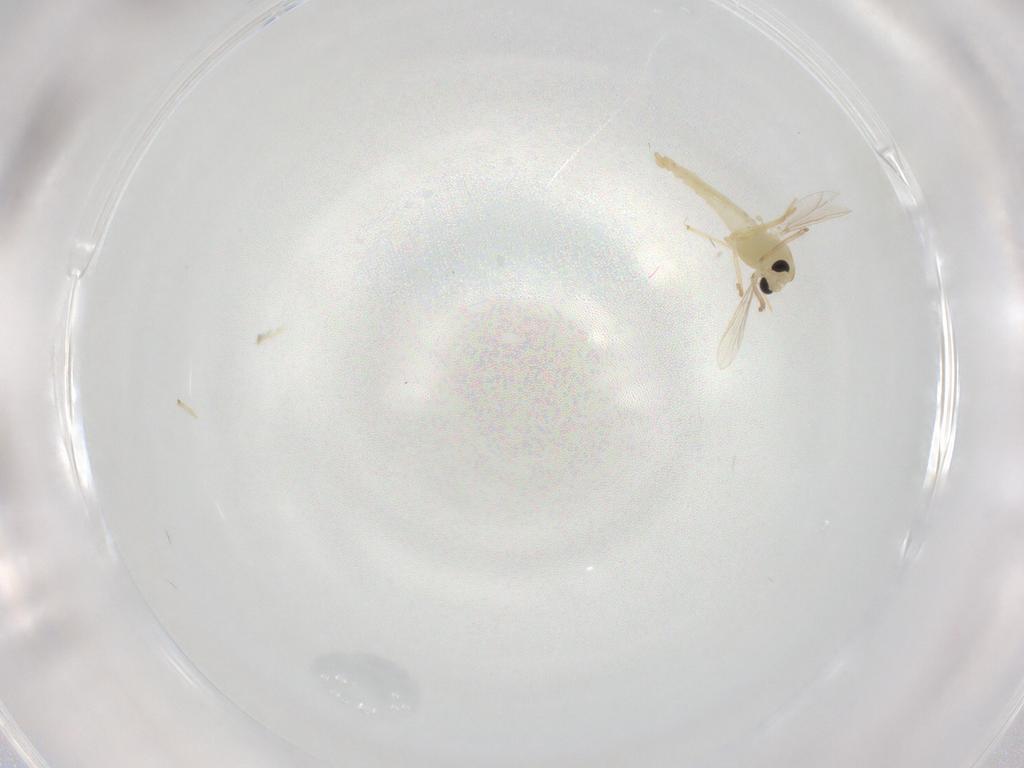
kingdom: Animalia
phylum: Arthropoda
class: Insecta
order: Diptera
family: Chironomidae
